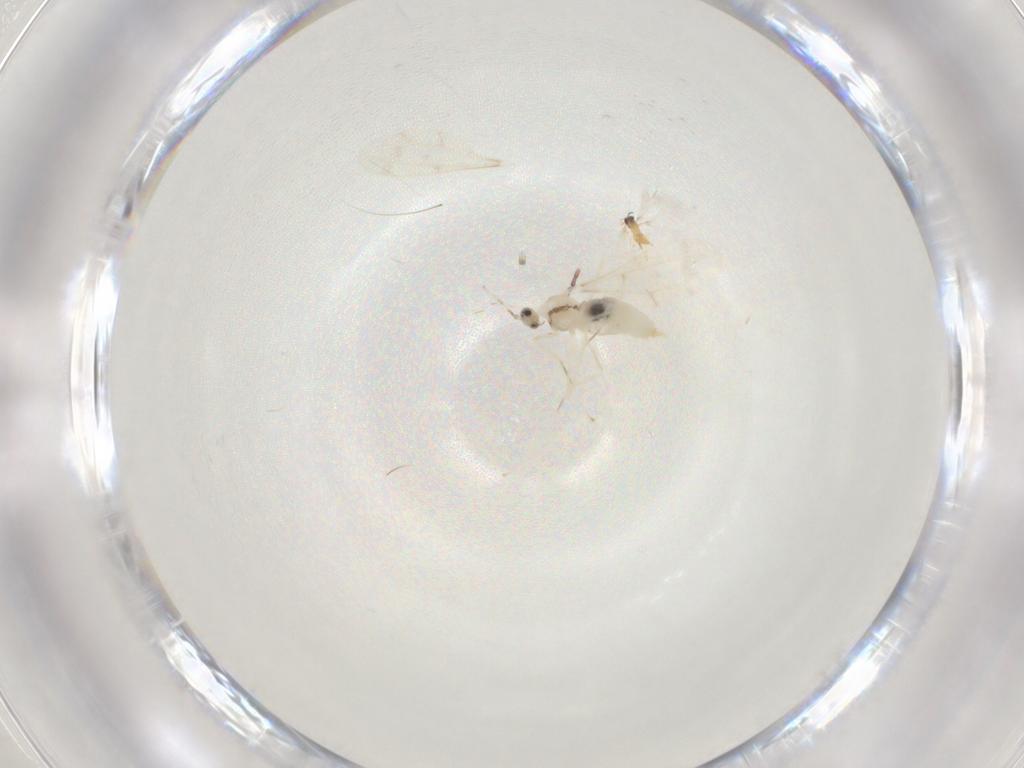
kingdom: Animalia
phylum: Arthropoda
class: Collembola
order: Entomobryomorpha
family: Entomobryidae
